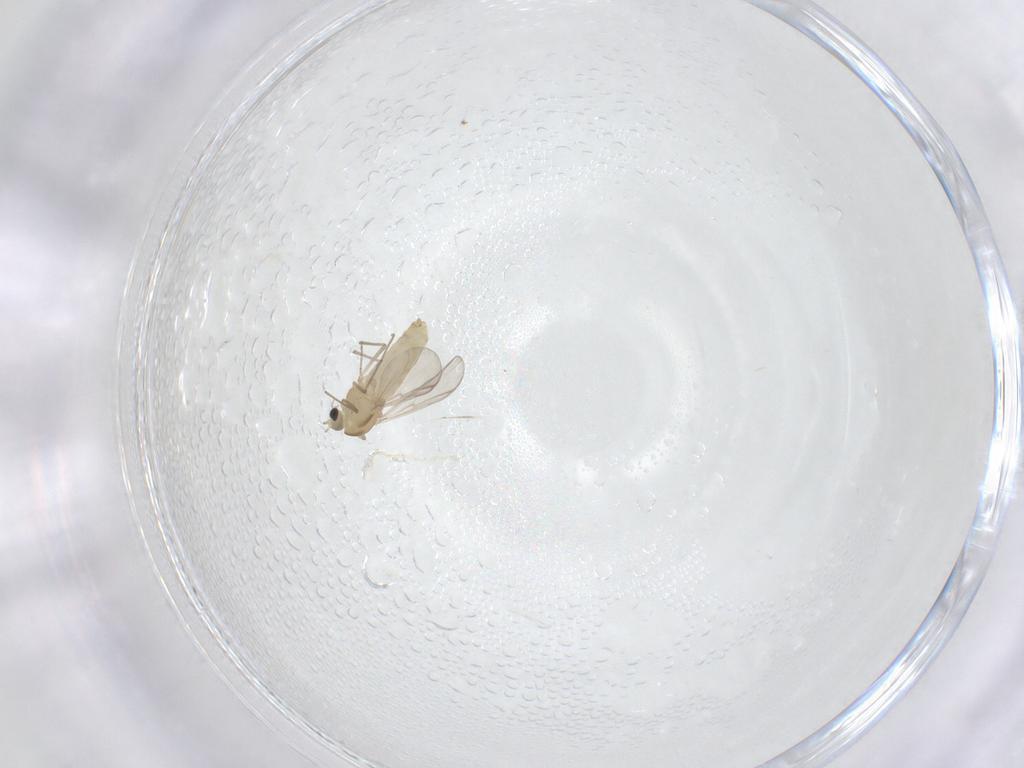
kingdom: Animalia
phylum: Arthropoda
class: Insecta
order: Diptera
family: Chironomidae
